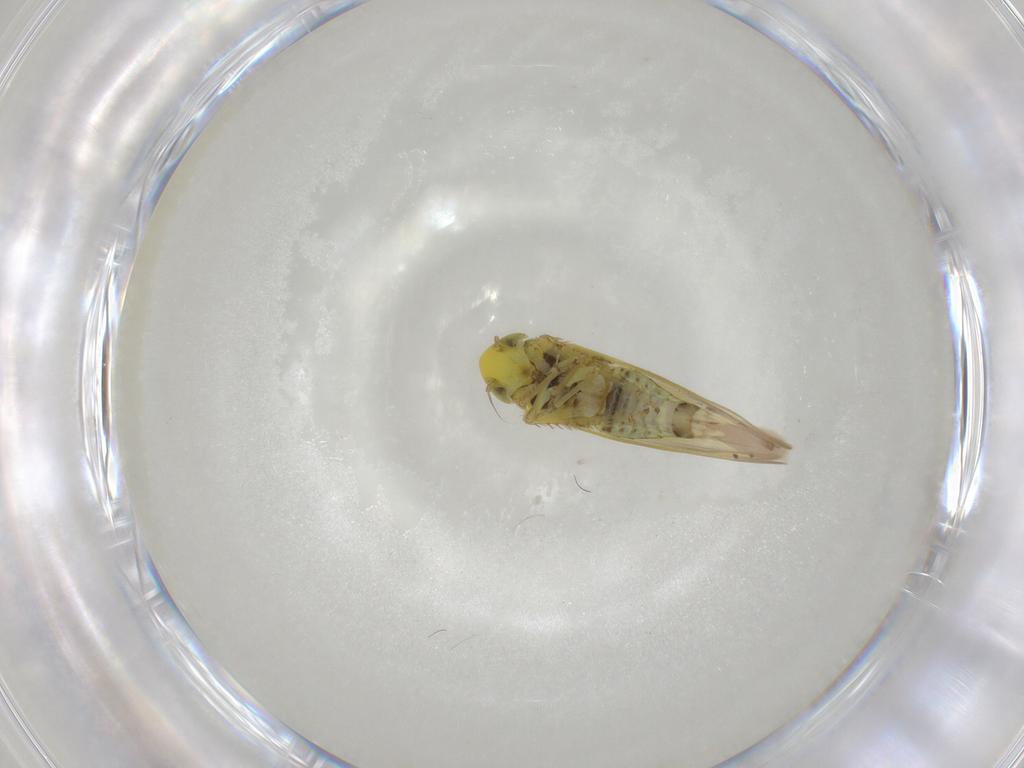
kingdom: Animalia
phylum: Arthropoda
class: Insecta
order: Hemiptera
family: Cicadellidae
